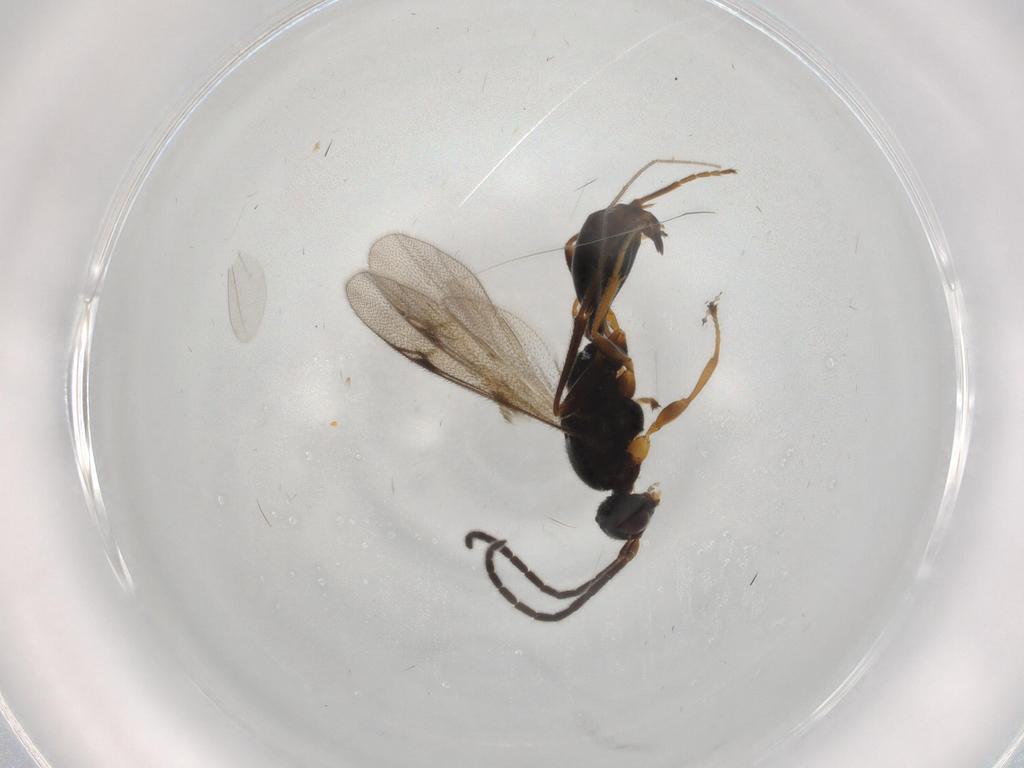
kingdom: Animalia
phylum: Arthropoda
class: Insecta
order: Hymenoptera
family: Proctotrupidae
